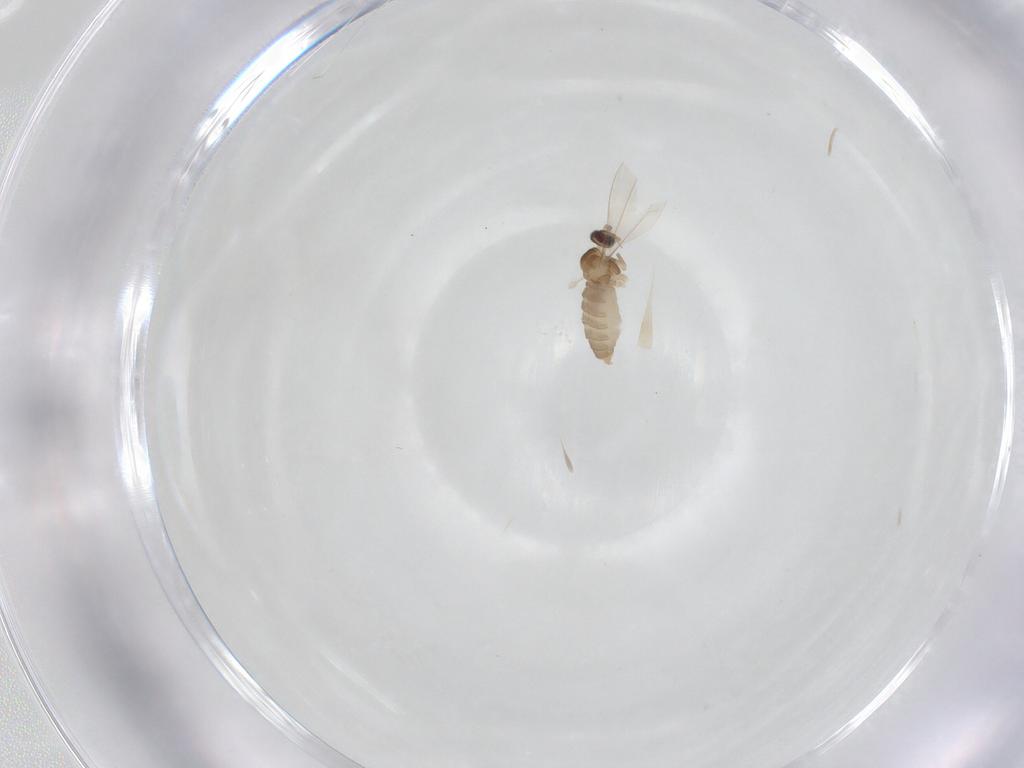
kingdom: Animalia
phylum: Arthropoda
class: Insecta
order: Diptera
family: Cecidomyiidae
